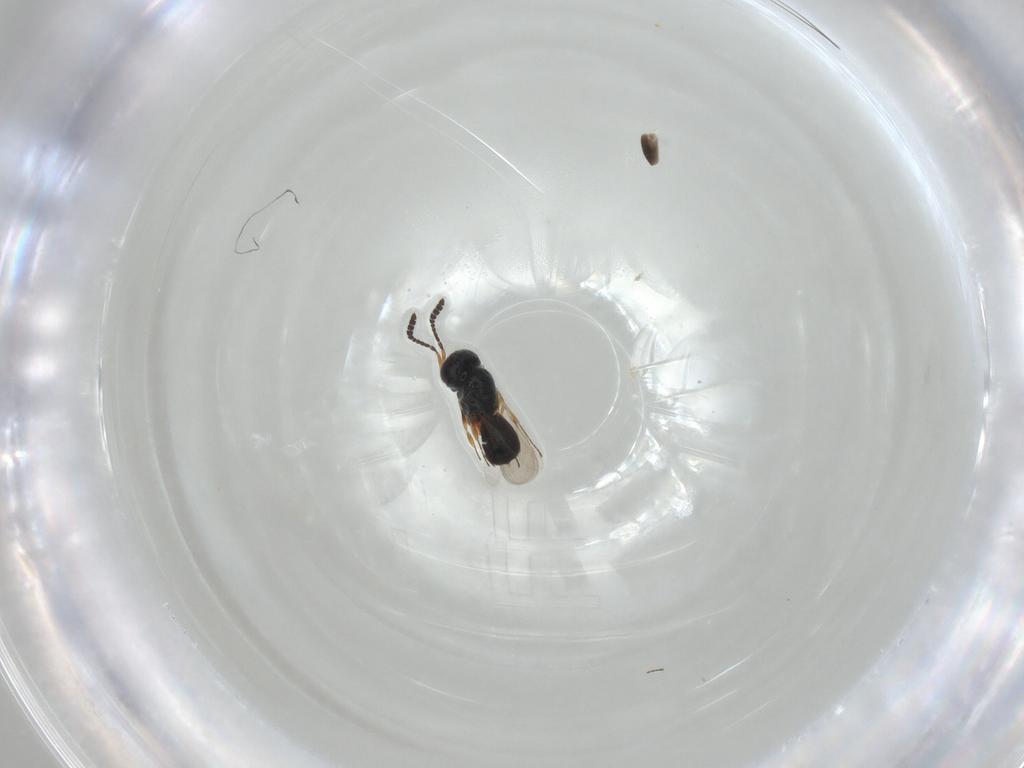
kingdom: Animalia
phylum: Arthropoda
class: Insecta
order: Hymenoptera
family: Scelionidae
